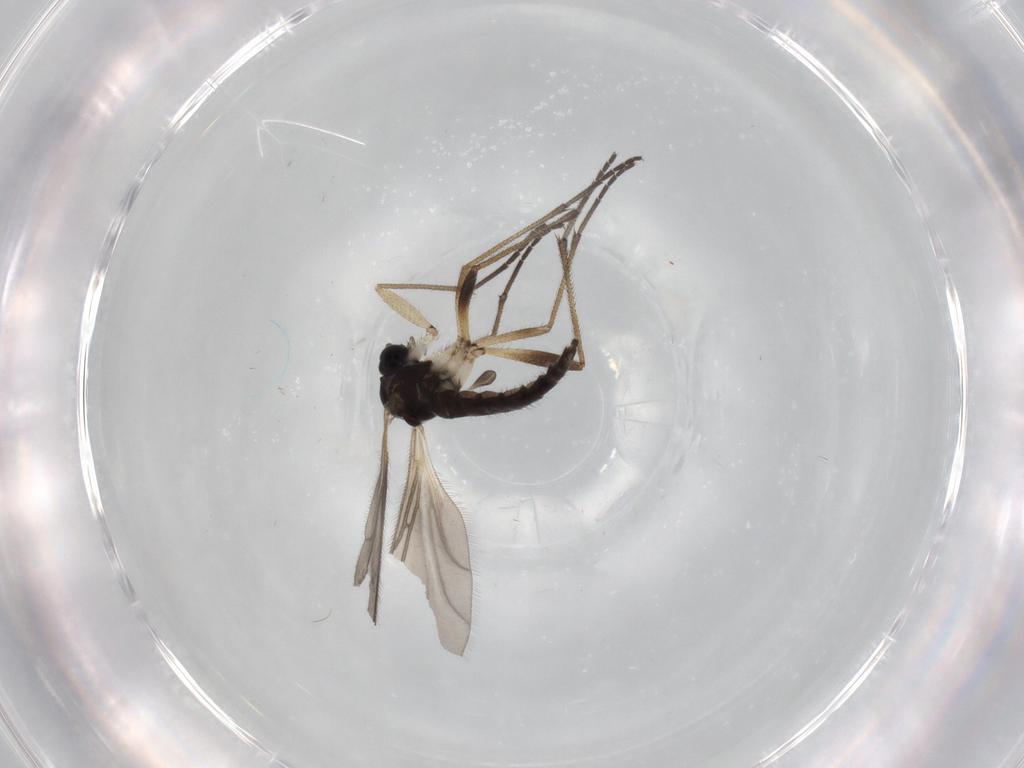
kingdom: Animalia
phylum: Arthropoda
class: Insecta
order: Diptera
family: Sciaridae
